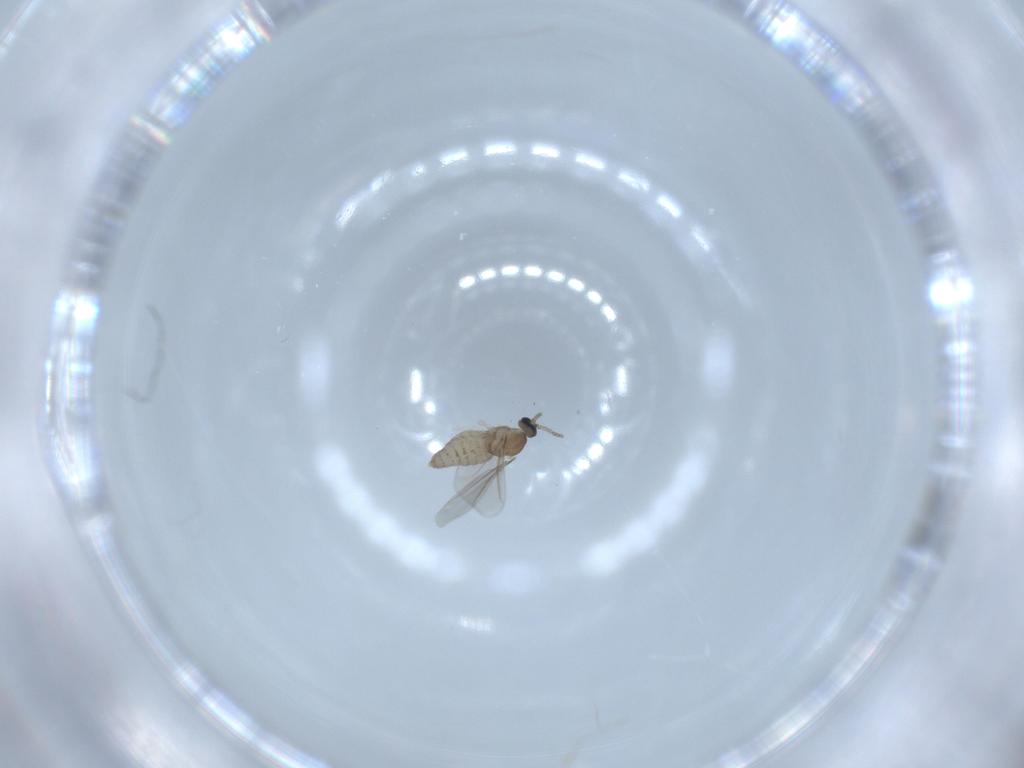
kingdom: Animalia
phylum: Arthropoda
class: Insecta
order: Diptera
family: Cecidomyiidae
